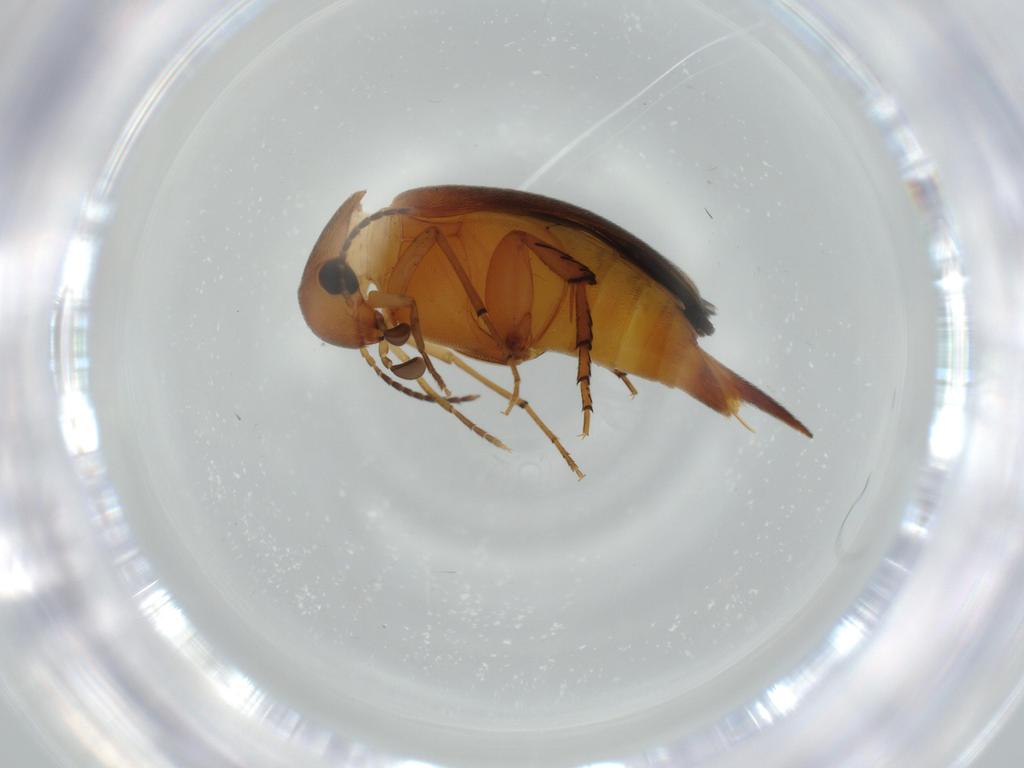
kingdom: Animalia
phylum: Arthropoda
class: Insecta
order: Coleoptera
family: Mordellidae
